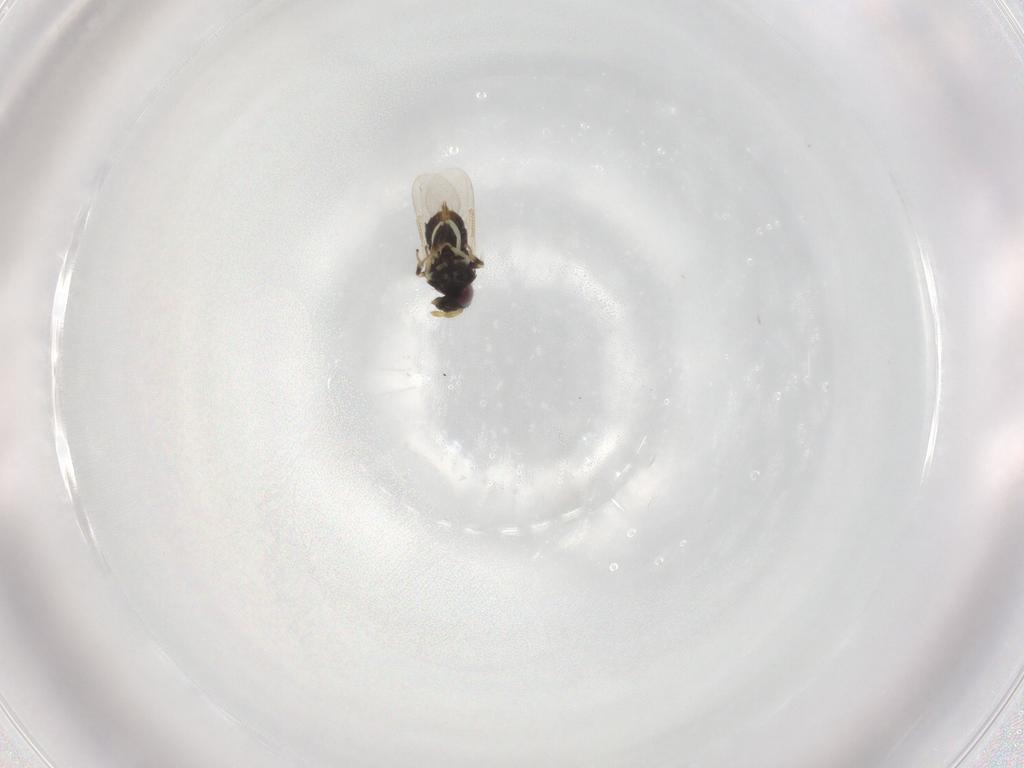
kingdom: Animalia
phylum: Arthropoda
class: Insecta
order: Hymenoptera
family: Aphelinidae
